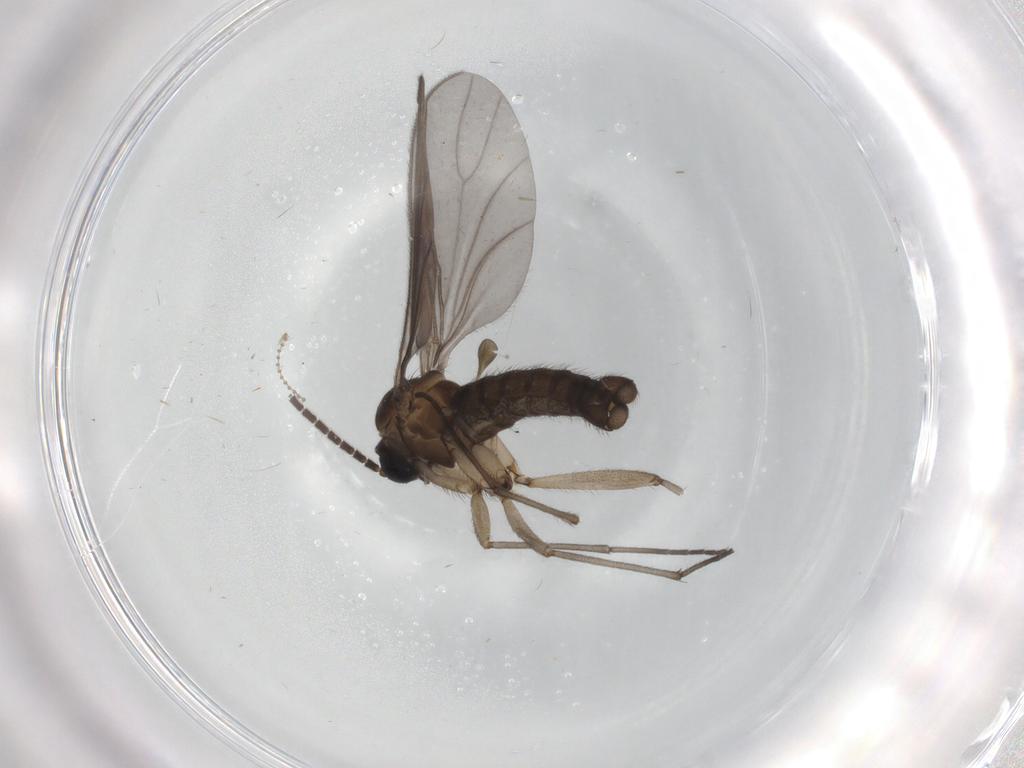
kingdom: Animalia
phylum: Arthropoda
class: Insecta
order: Diptera
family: Sciaridae
